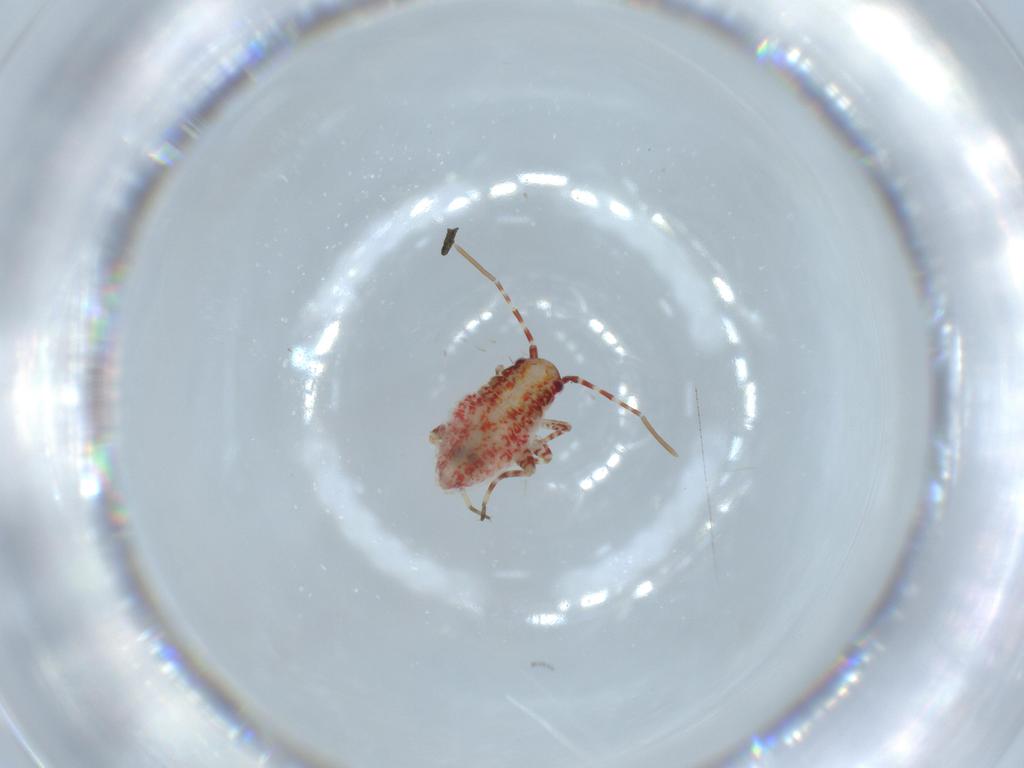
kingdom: Animalia
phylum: Arthropoda
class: Insecta
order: Hemiptera
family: Miridae
